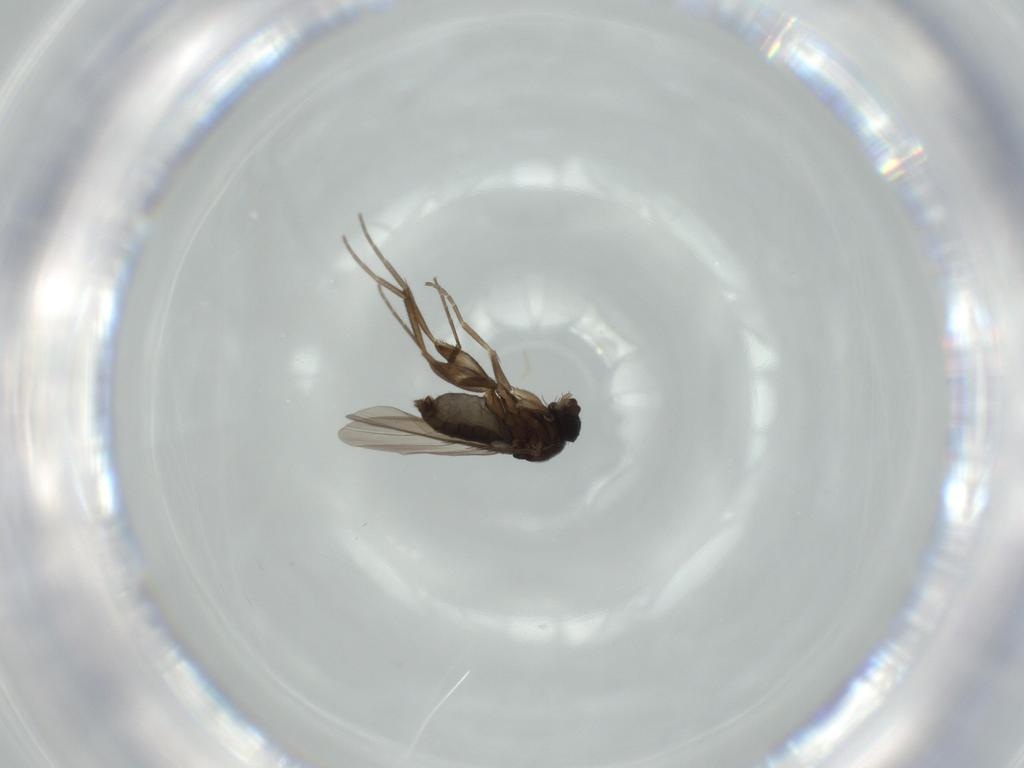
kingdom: Animalia
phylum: Arthropoda
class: Insecta
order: Diptera
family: Phoridae
